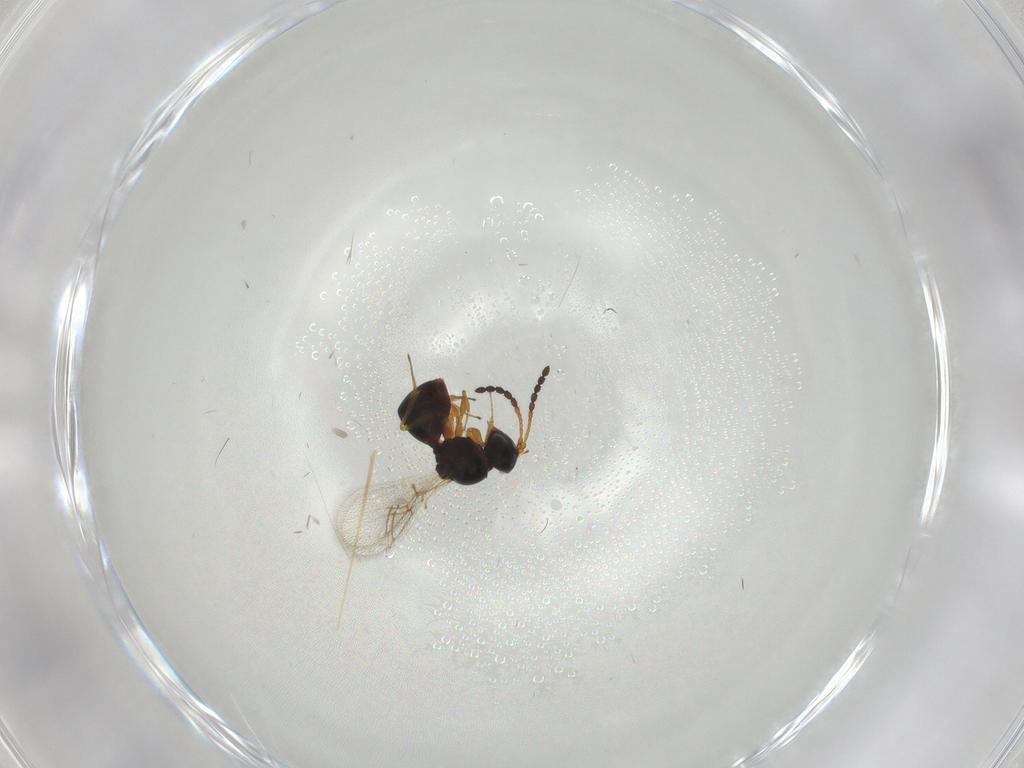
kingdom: Animalia
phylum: Arthropoda
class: Insecta
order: Hymenoptera
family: Figitidae
